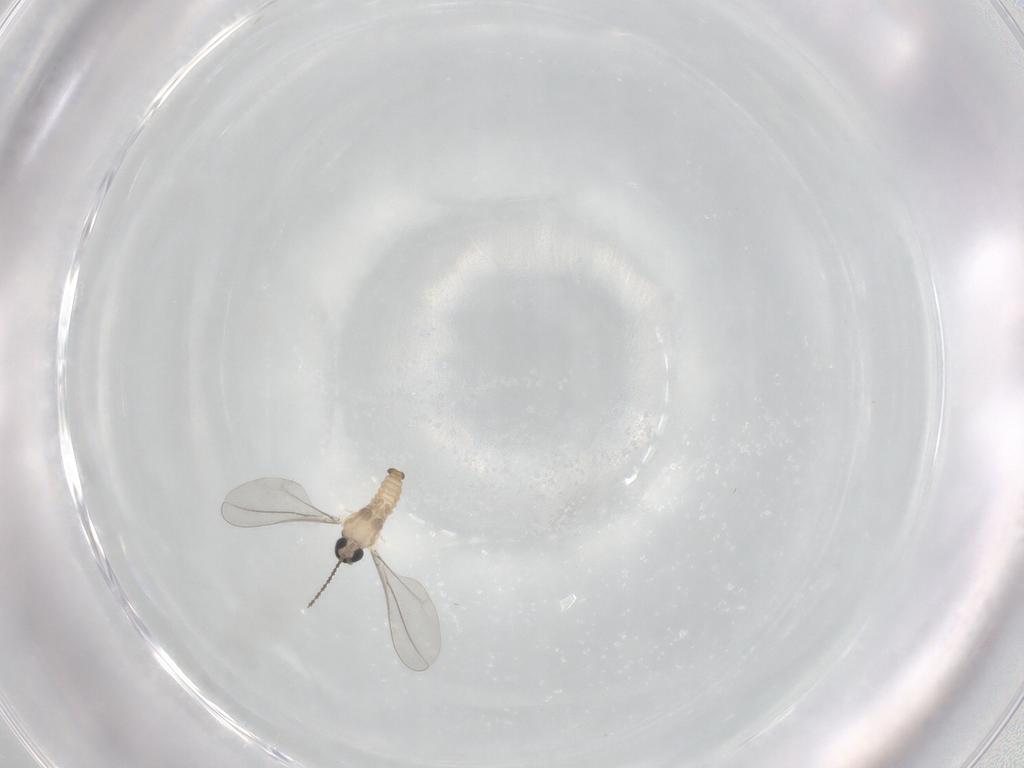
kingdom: Animalia
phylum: Arthropoda
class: Insecta
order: Diptera
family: Cecidomyiidae
